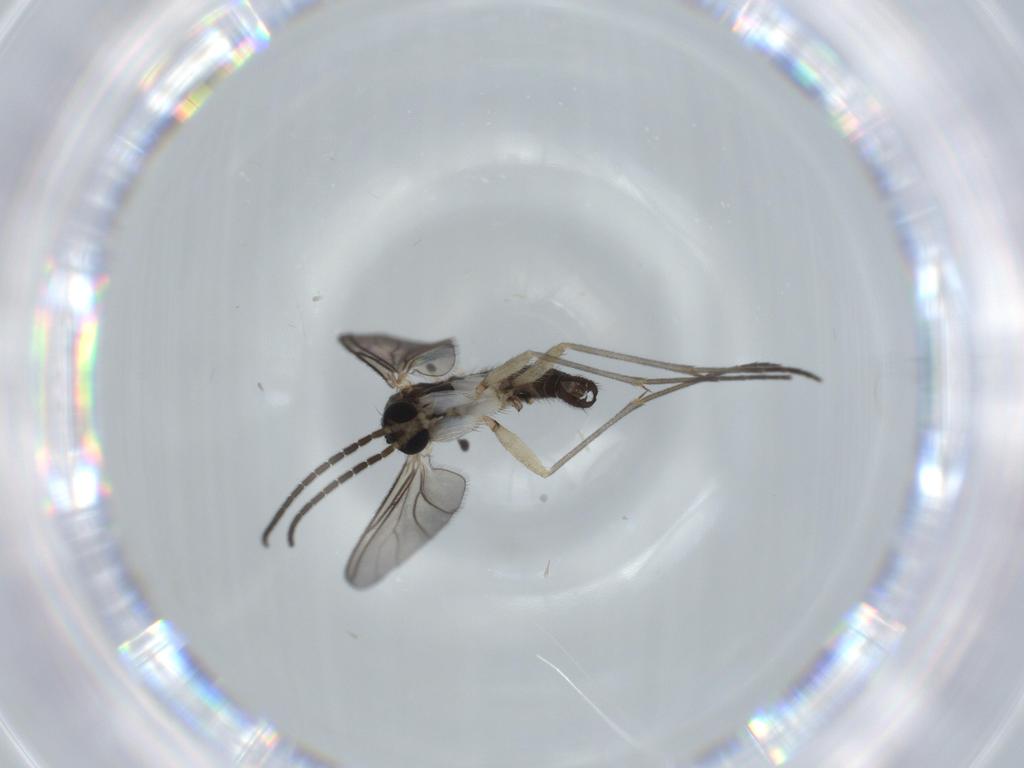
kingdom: Animalia
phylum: Arthropoda
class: Insecta
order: Diptera
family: Sciaridae
